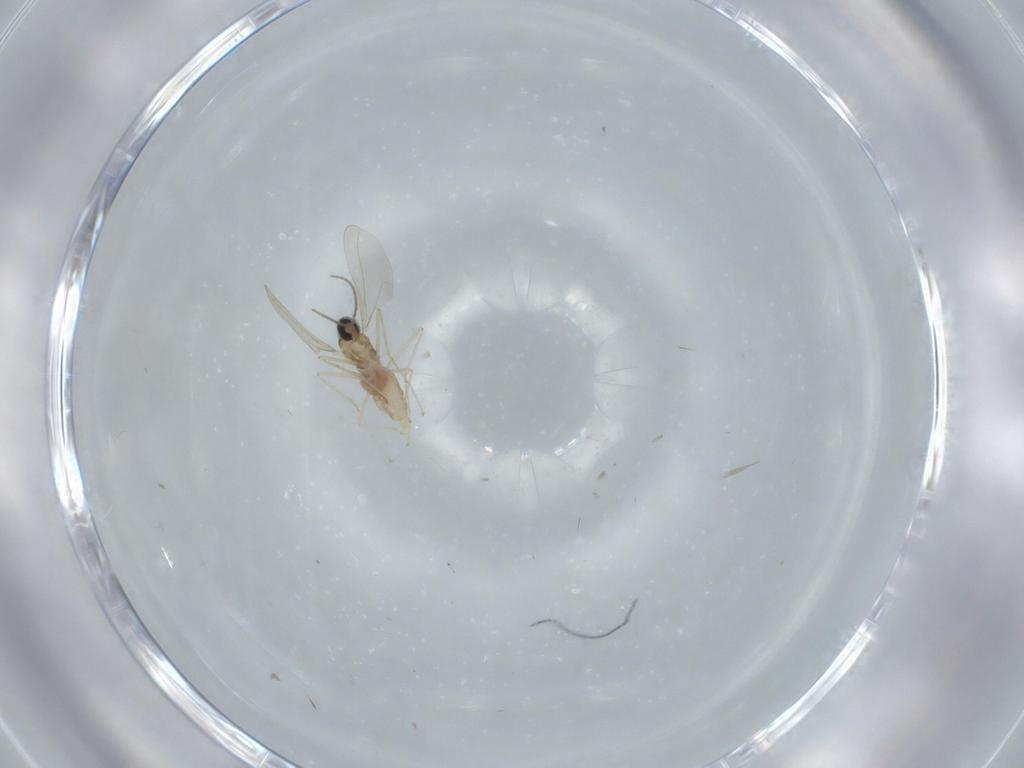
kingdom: Animalia
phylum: Arthropoda
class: Insecta
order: Diptera
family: Cecidomyiidae
